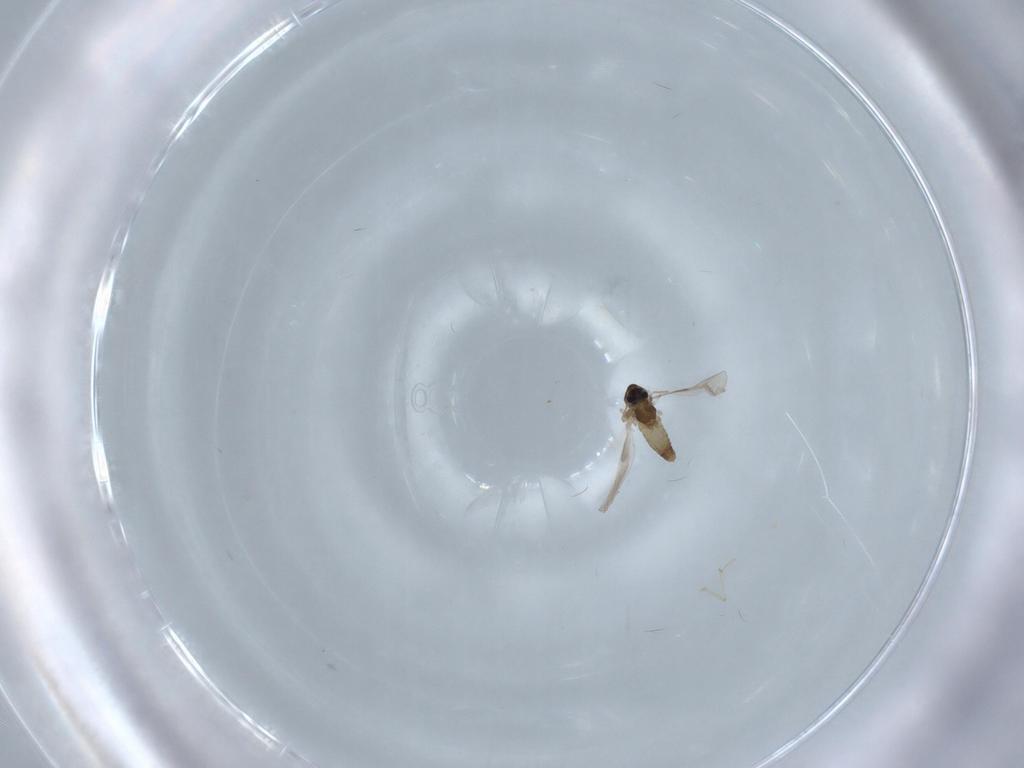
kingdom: Animalia
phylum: Arthropoda
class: Insecta
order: Diptera
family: Chironomidae
